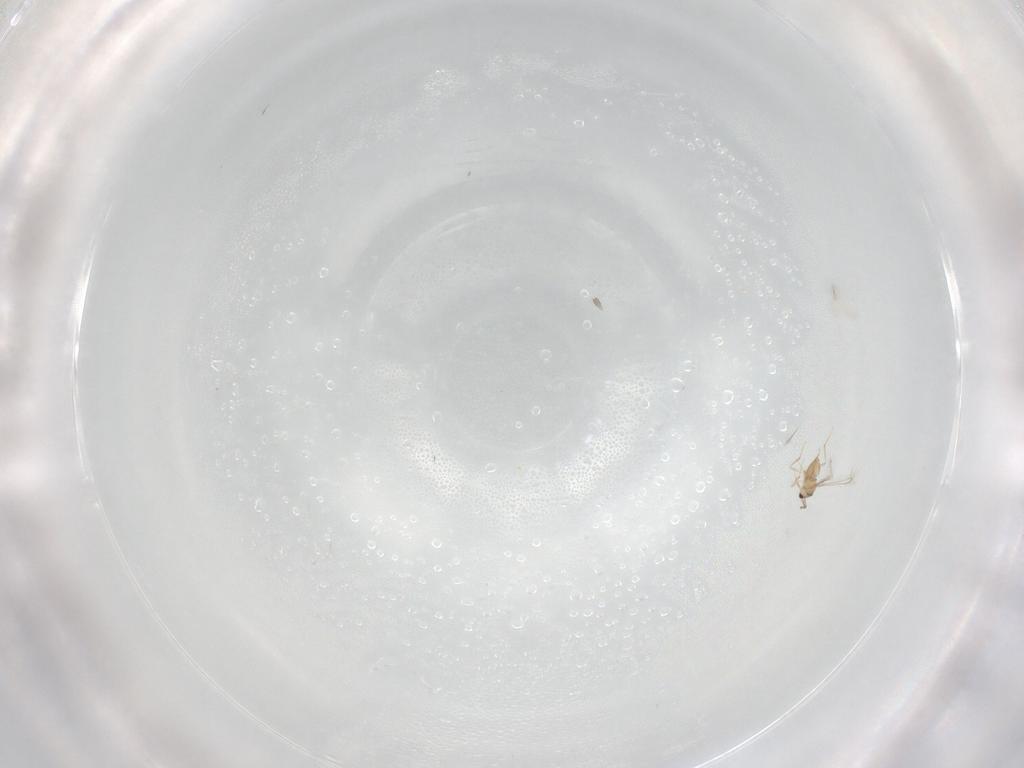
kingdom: Animalia
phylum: Arthropoda
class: Insecta
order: Hymenoptera
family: Mymaridae
